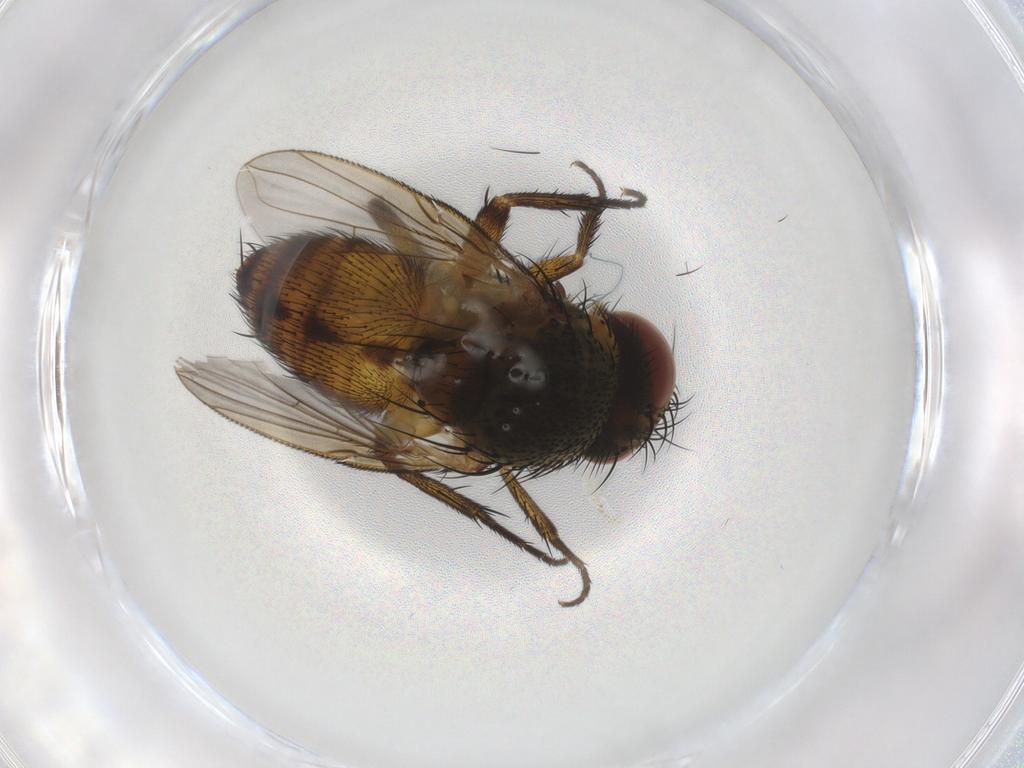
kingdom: Animalia
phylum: Arthropoda
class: Insecta
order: Diptera
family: Tachinidae
